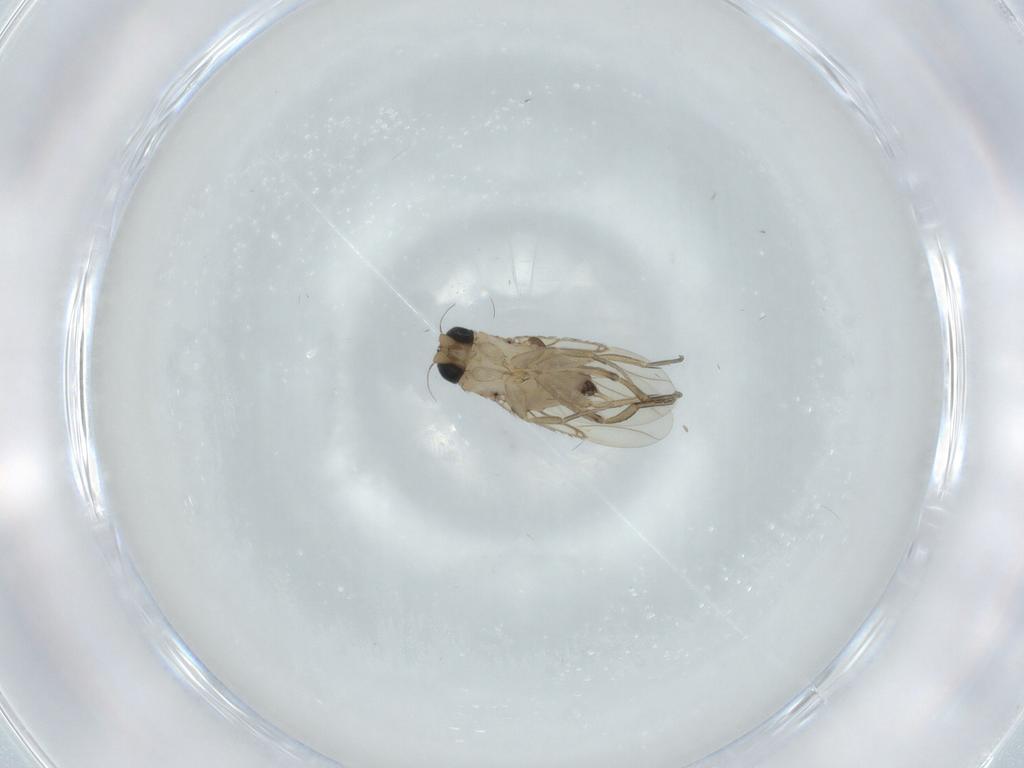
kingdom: Animalia
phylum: Arthropoda
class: Insecta
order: Diptera
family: Phoridae
